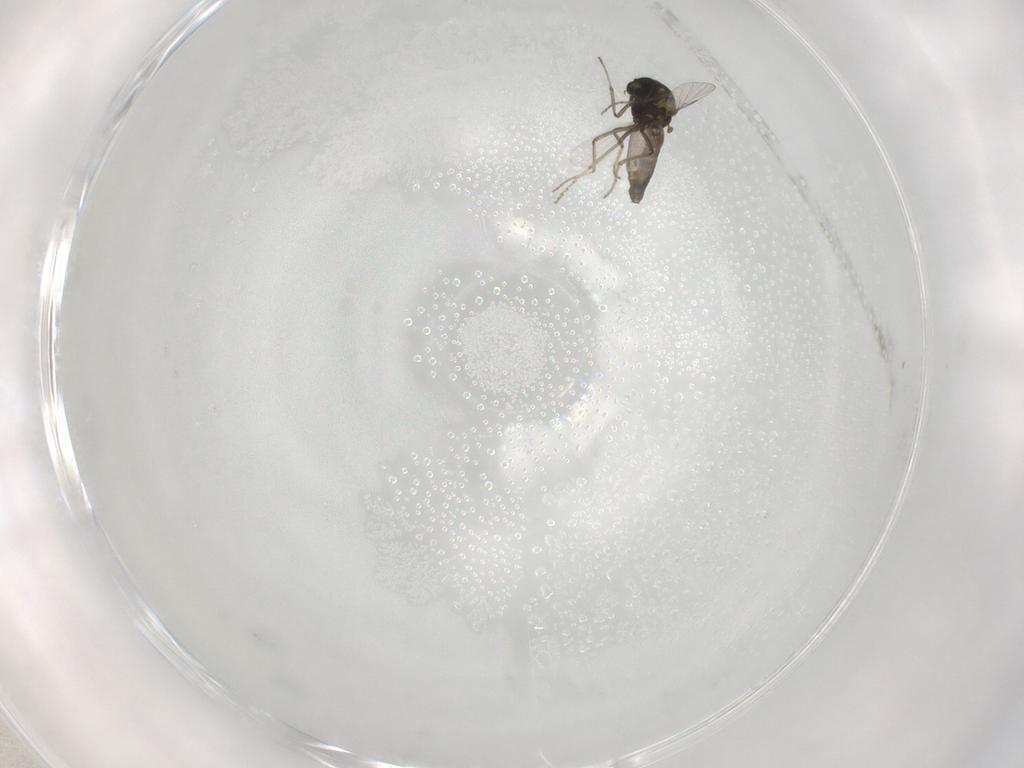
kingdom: Animalia
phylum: Arthropoda
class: Insecta
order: Diptera
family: Ceratopogonidae
